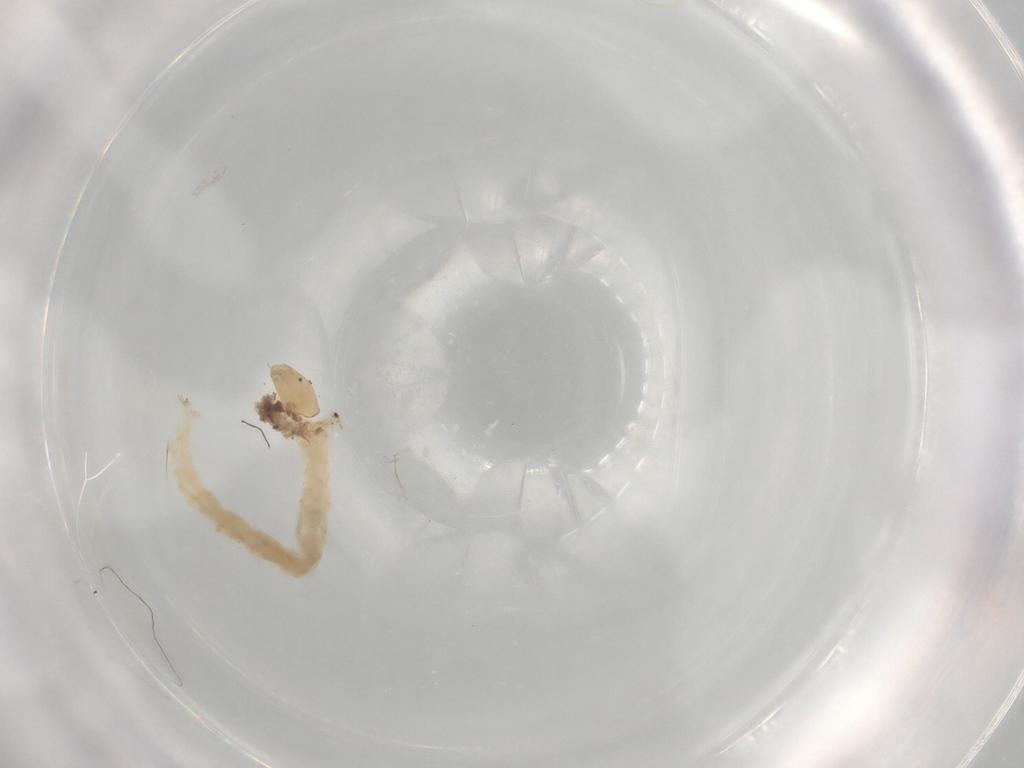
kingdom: Animalia
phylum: Arthropoda
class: Insecta
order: Diptera
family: Chironomidae
